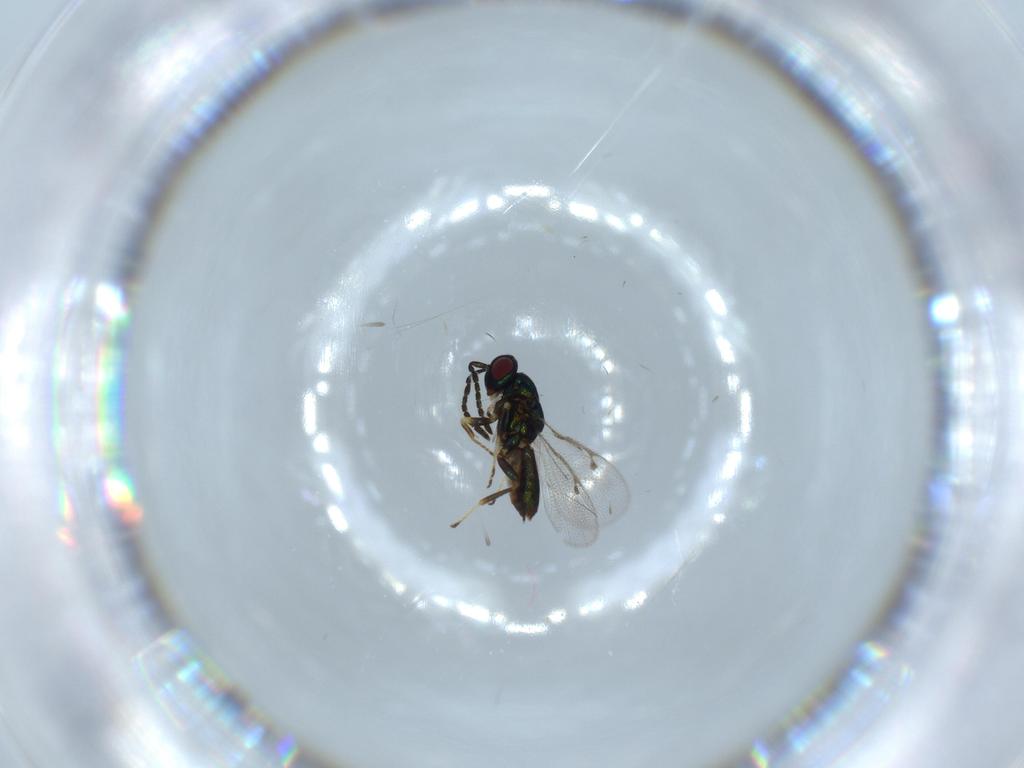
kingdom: Animalia
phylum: Arthropoda
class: Insecta
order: Hymenoptera
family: Pteromalidae
